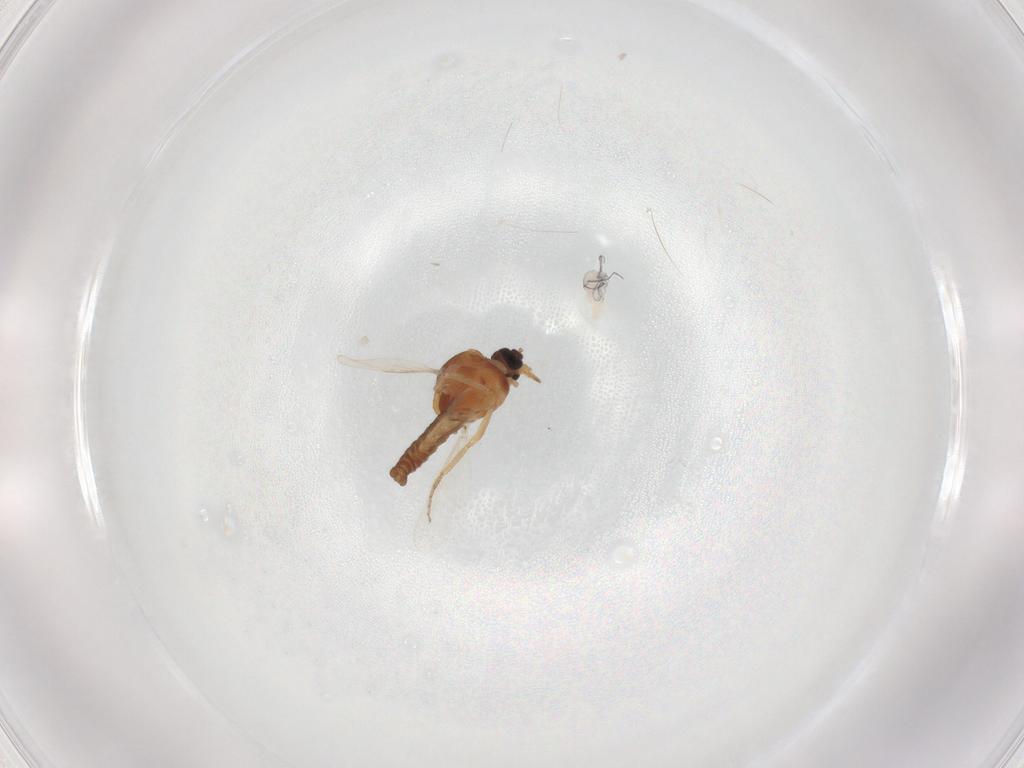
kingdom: Animalia
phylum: Arthropoda
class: Insecta
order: Diptera
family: Ceratopogonidae
